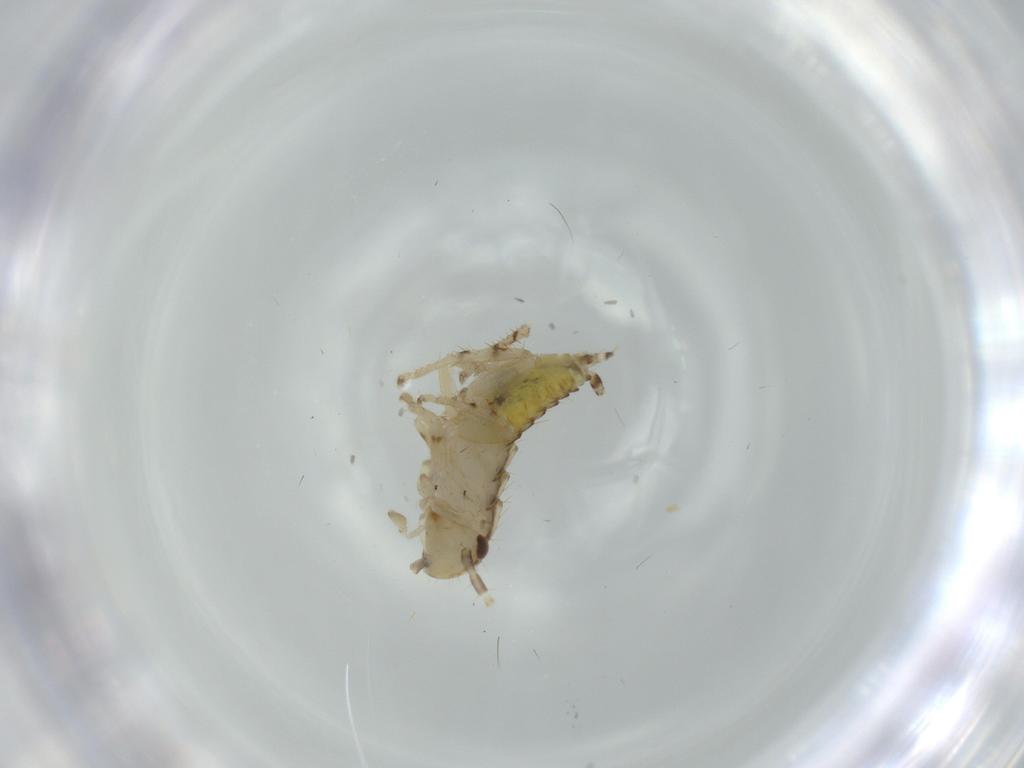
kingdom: Animalia
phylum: Arthropoda
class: Insecta
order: Blattodea
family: Ectobiidae
